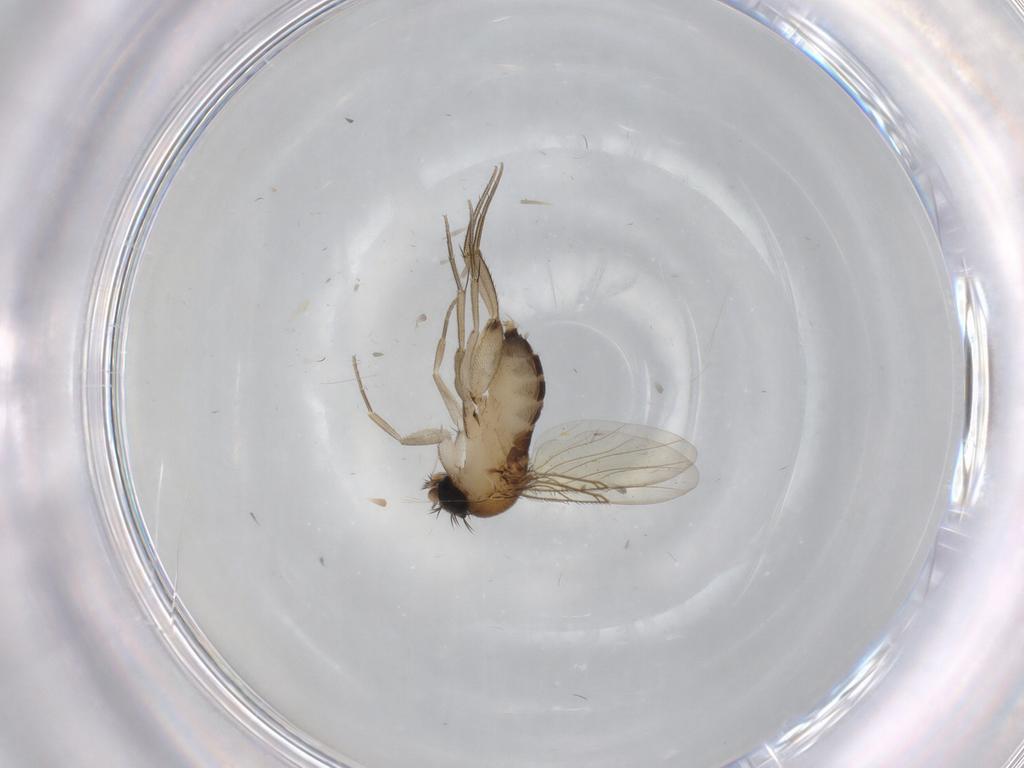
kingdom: Animalia
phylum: Arthropoda
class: Insecta
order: Diptera
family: Phoridae
